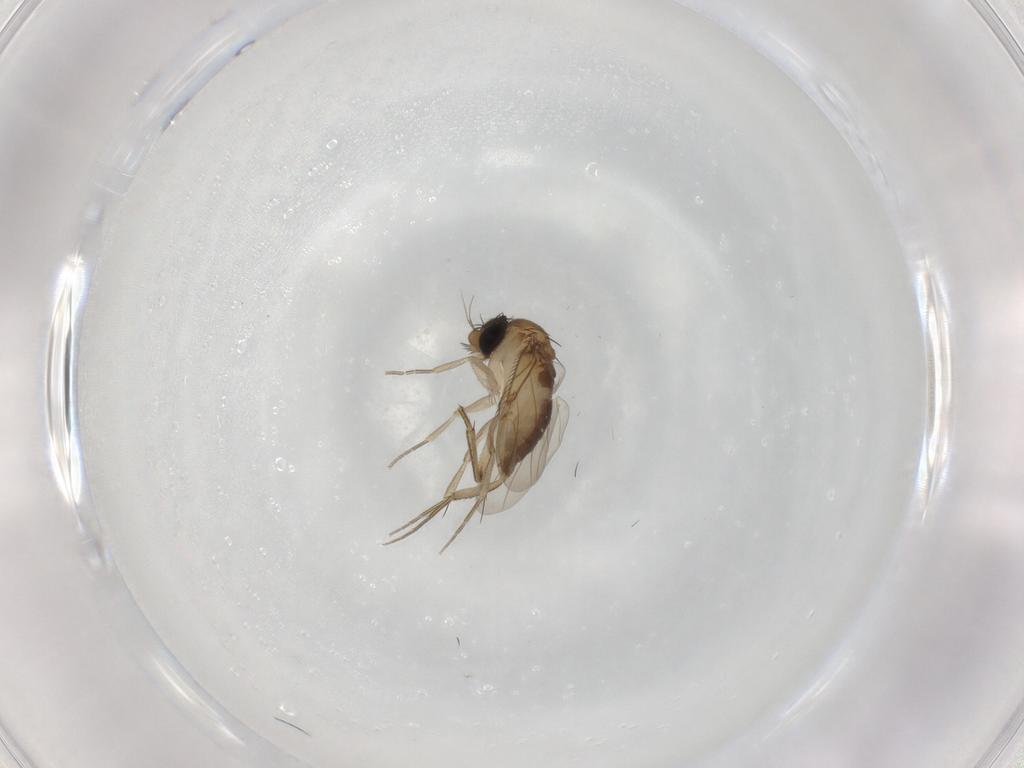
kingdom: Animalia
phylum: Arthropoda
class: Insecta
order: Diptera
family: Phoridae
